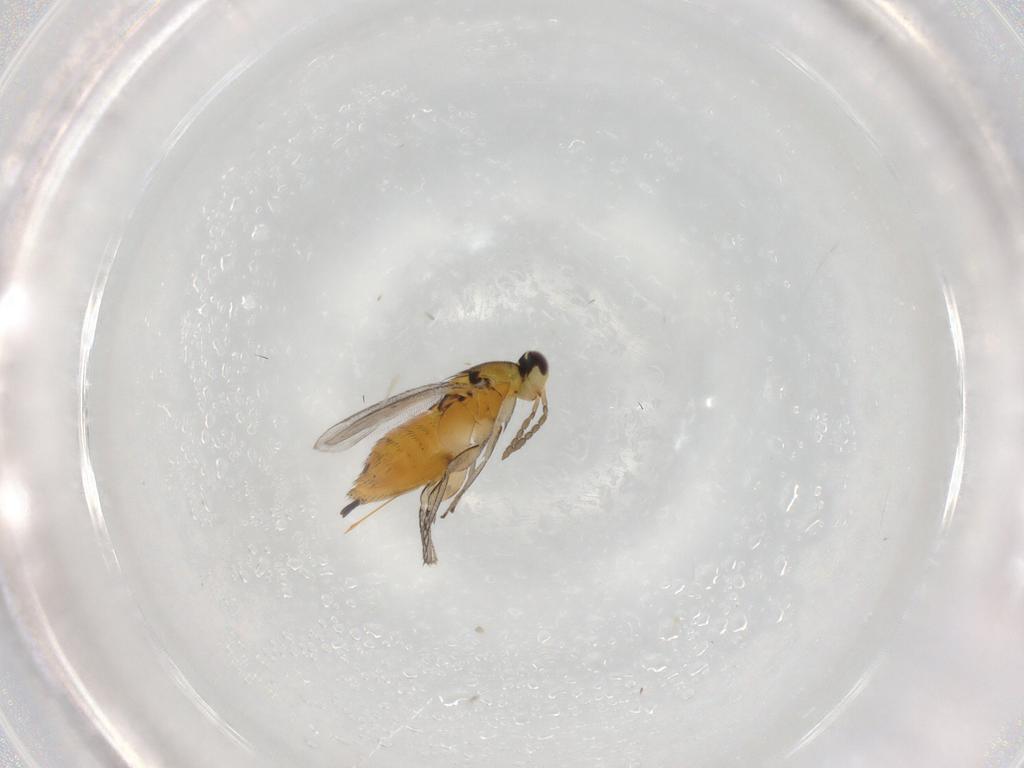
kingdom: Animalia
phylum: Arthropoda
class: Insecta
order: Hymenoptera
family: Eulophidae
